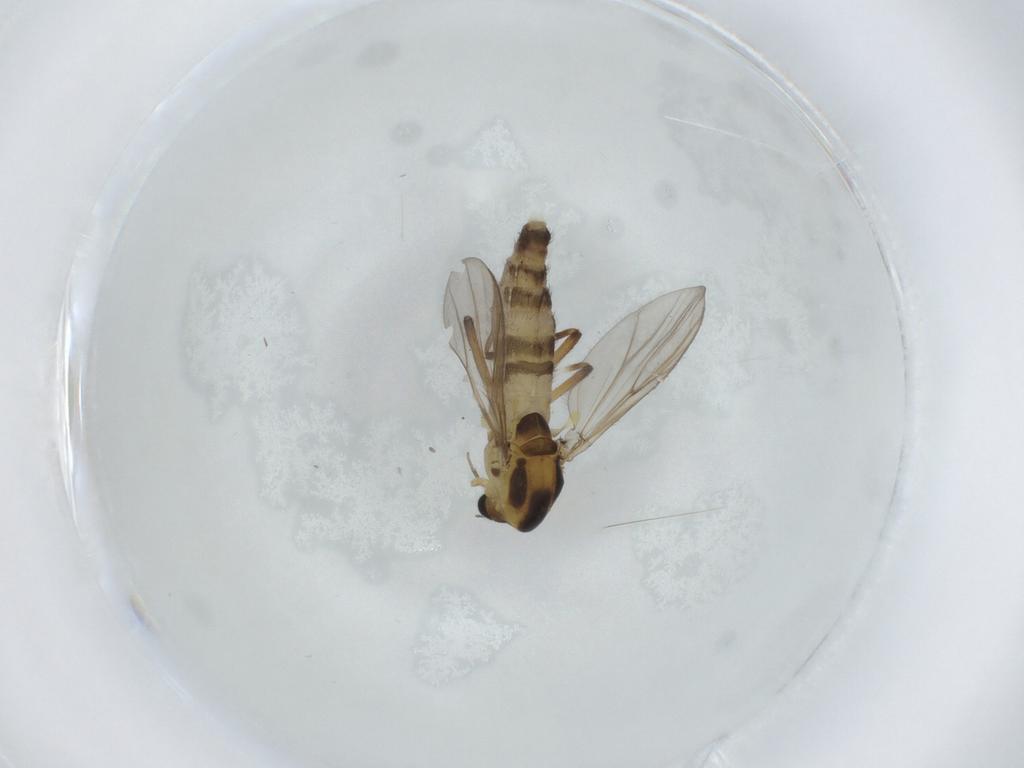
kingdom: Animalia
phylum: Arthropoda
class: Insecta
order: Diptera
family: Chironomidae
